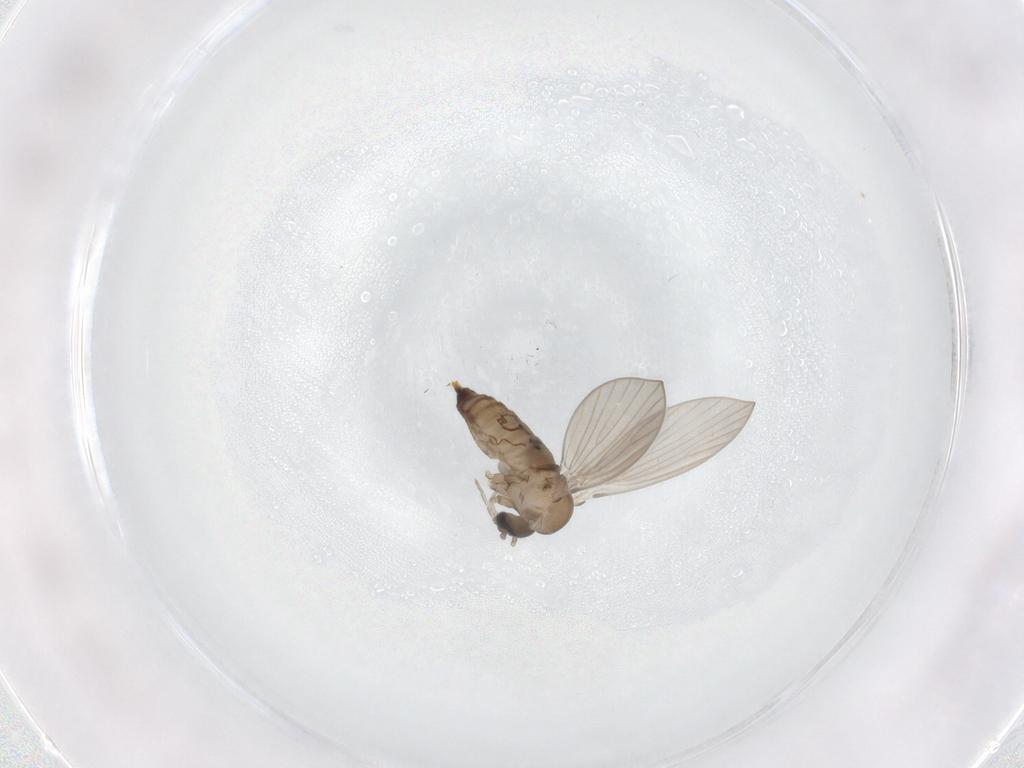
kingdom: Animalia
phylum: Arthropoda
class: Insecta
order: Diptera
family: Psychodidae
